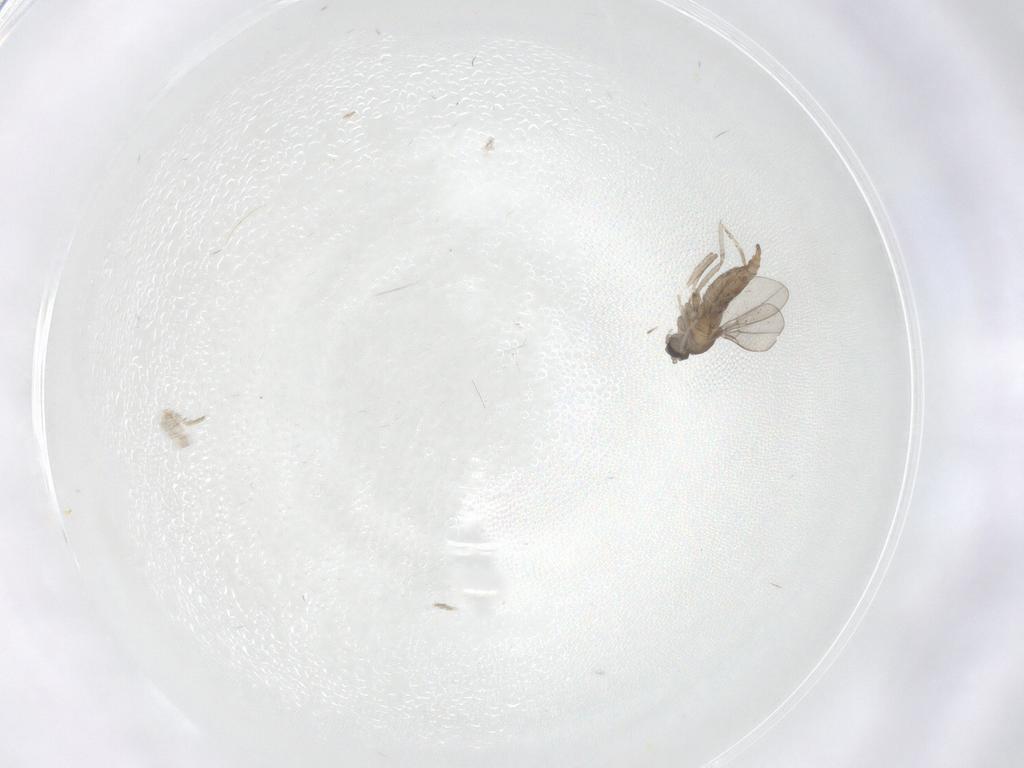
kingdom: Animalia
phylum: Arthropoda
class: Insecta
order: Diptera
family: Cecidomyiidae
